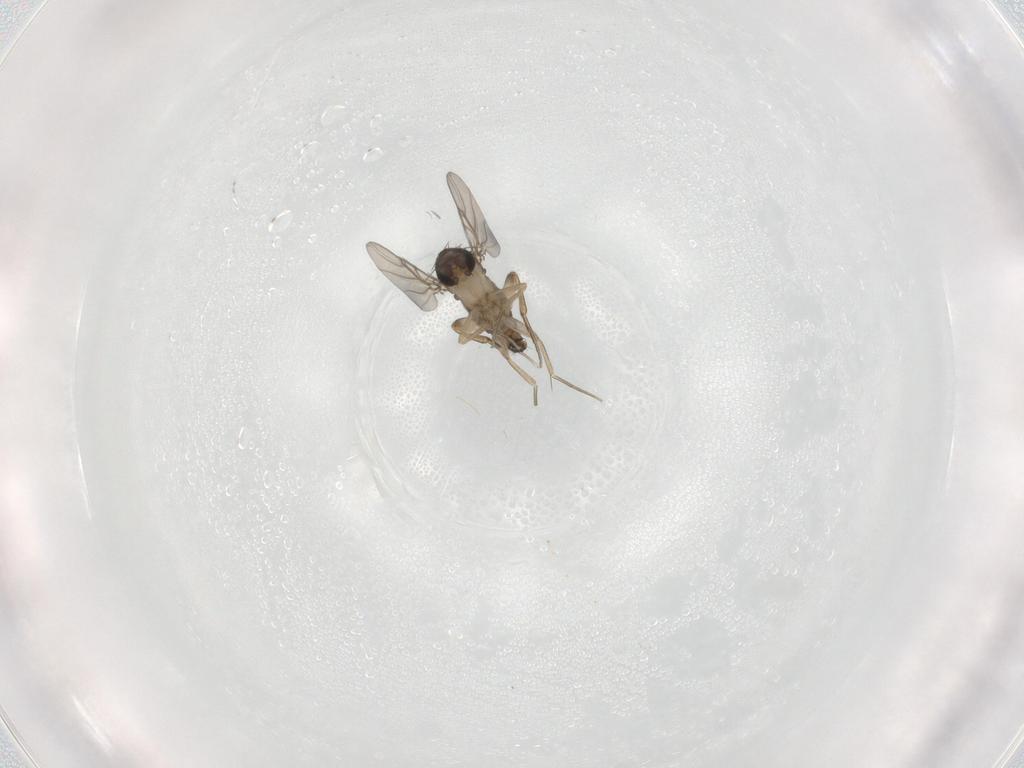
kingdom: Animalia
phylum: Arthropoda
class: Insecta
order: Diptera
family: Cecidomyiidae
